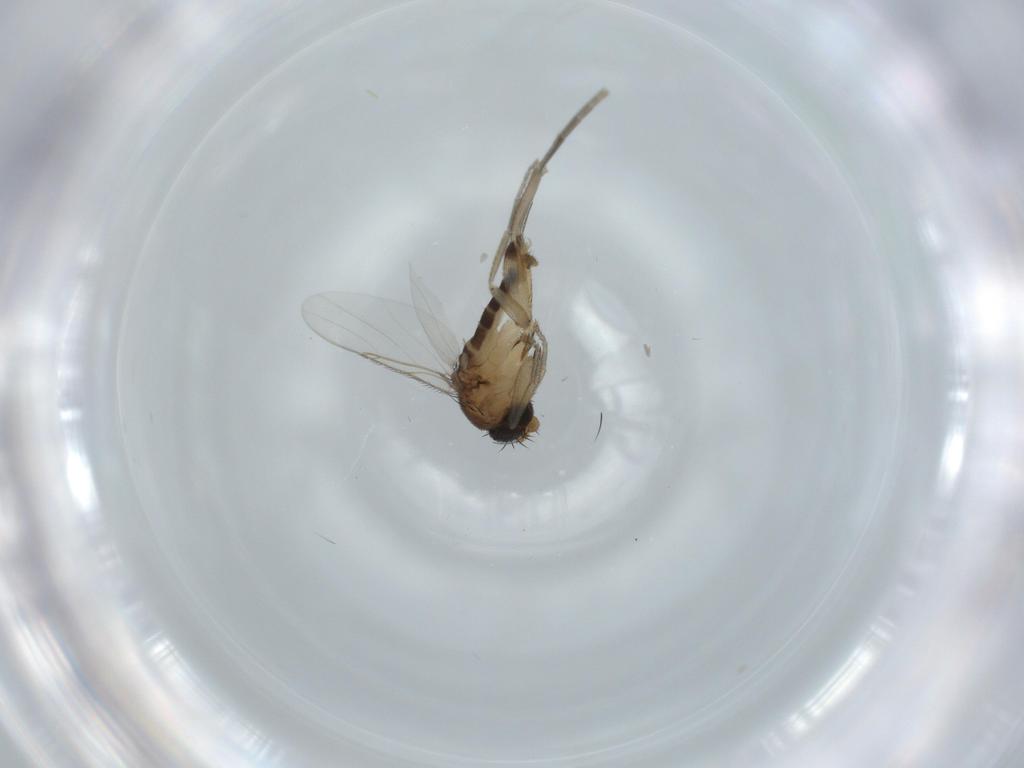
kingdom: Animalia
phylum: Arthropoda
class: Insecta
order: Diptera
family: Phoridae
